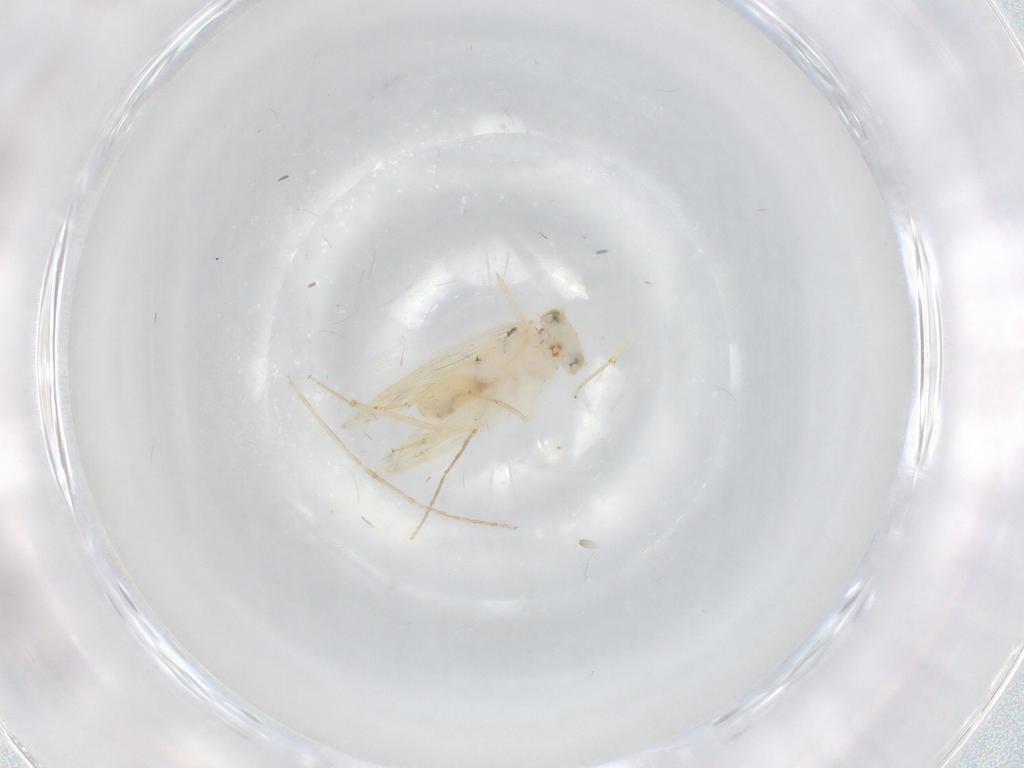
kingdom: Animalia
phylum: Arthropoda
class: Insecta
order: Psocodea
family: Lepidopsocidae
